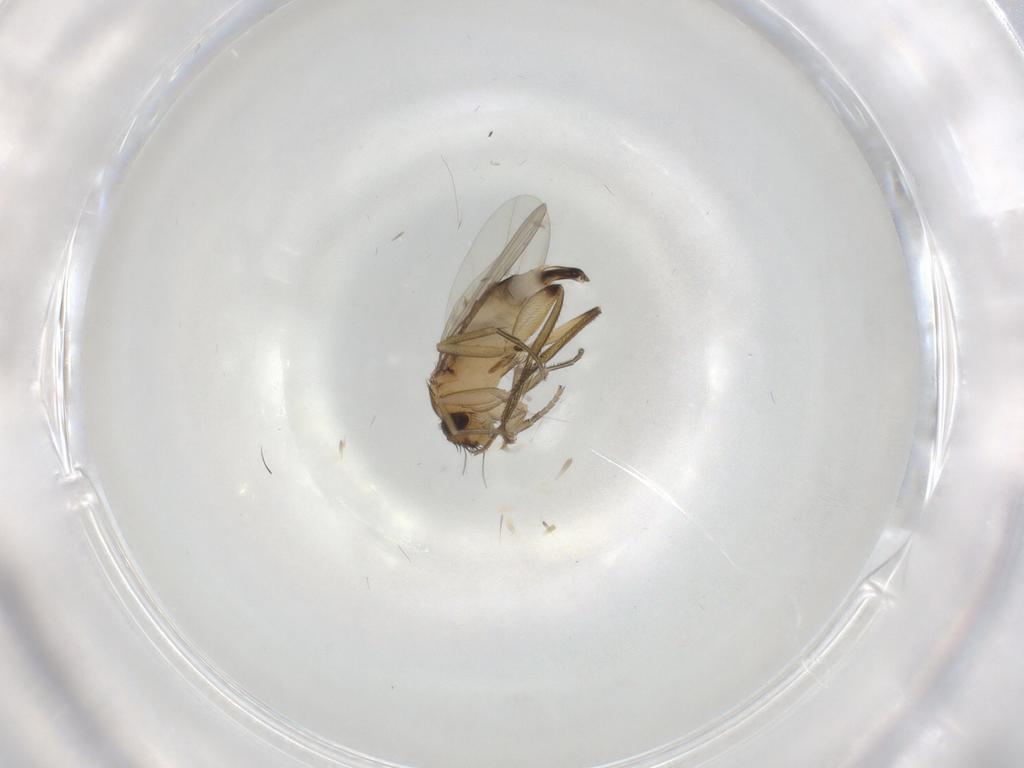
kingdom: Animalia
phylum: Arthropoda
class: Insecta
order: Diptera
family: Phoridae
